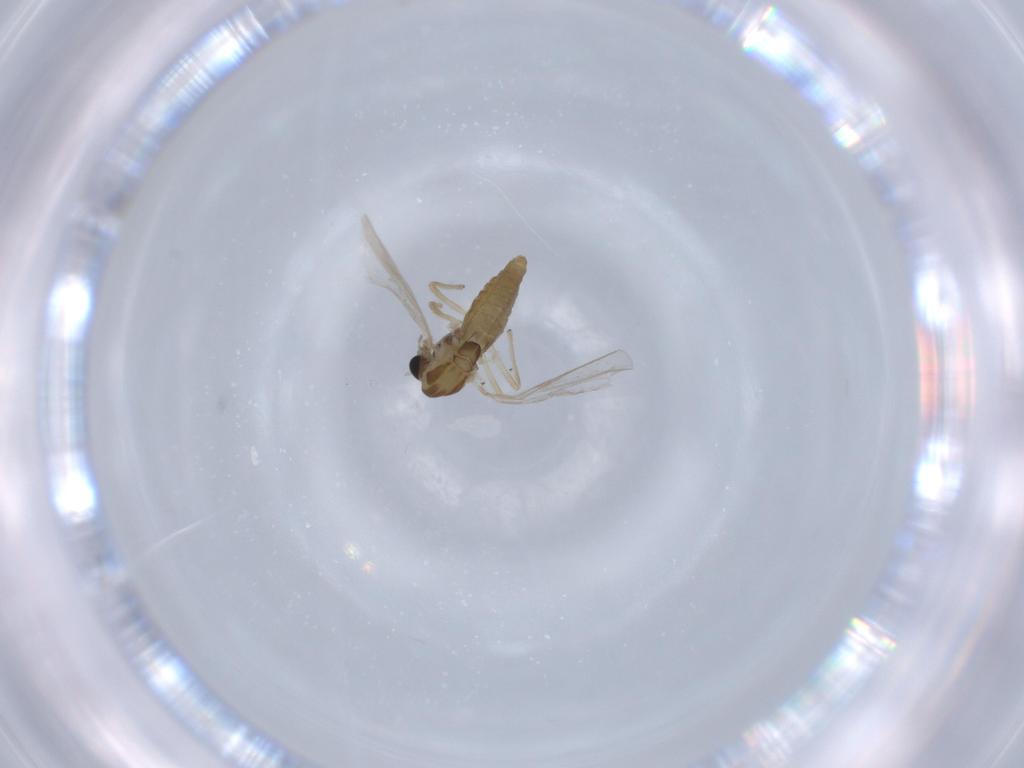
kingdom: Animalia
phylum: Arthropoda
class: Insecta
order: Diptera
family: Chironomidae
